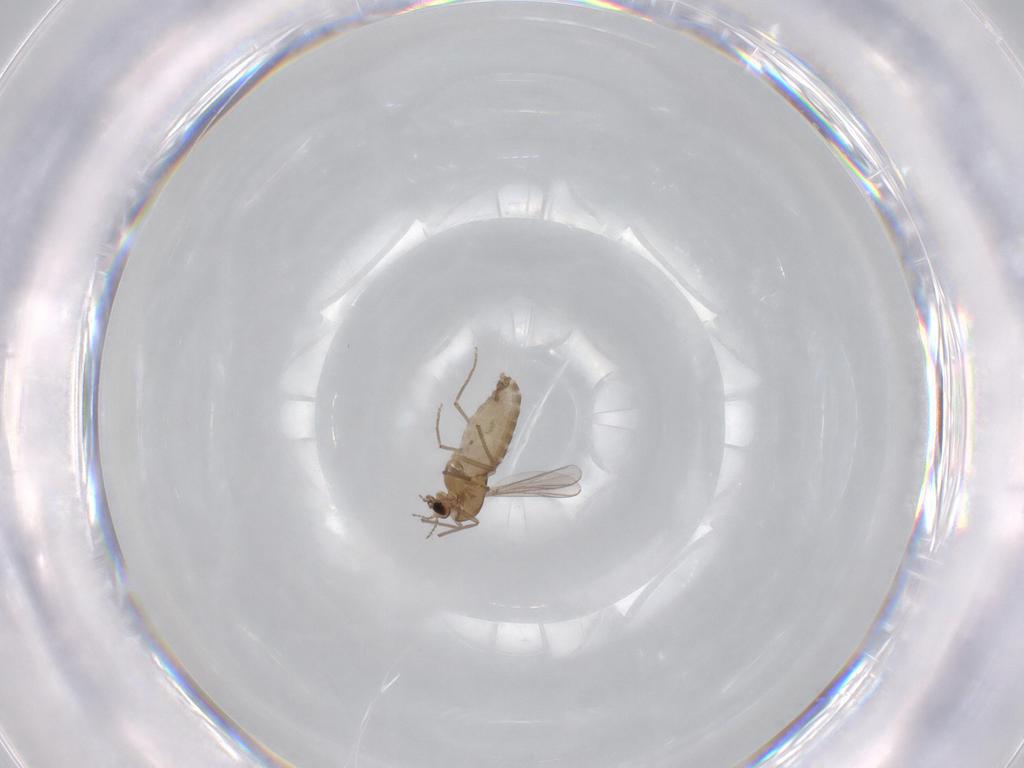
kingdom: Animalia
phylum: Arthropoda
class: Insecta
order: Diptera
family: Chironomidae
